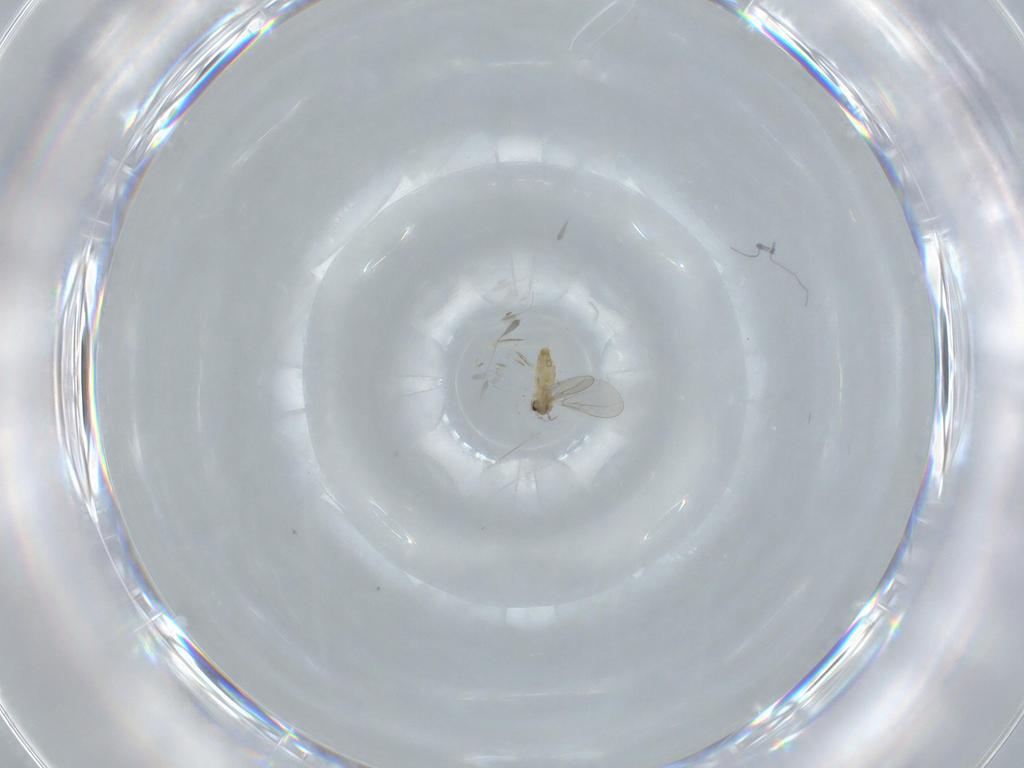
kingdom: Animalia
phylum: Arthropoda
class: Insecta
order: Diptera
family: Cecidomyiidae
